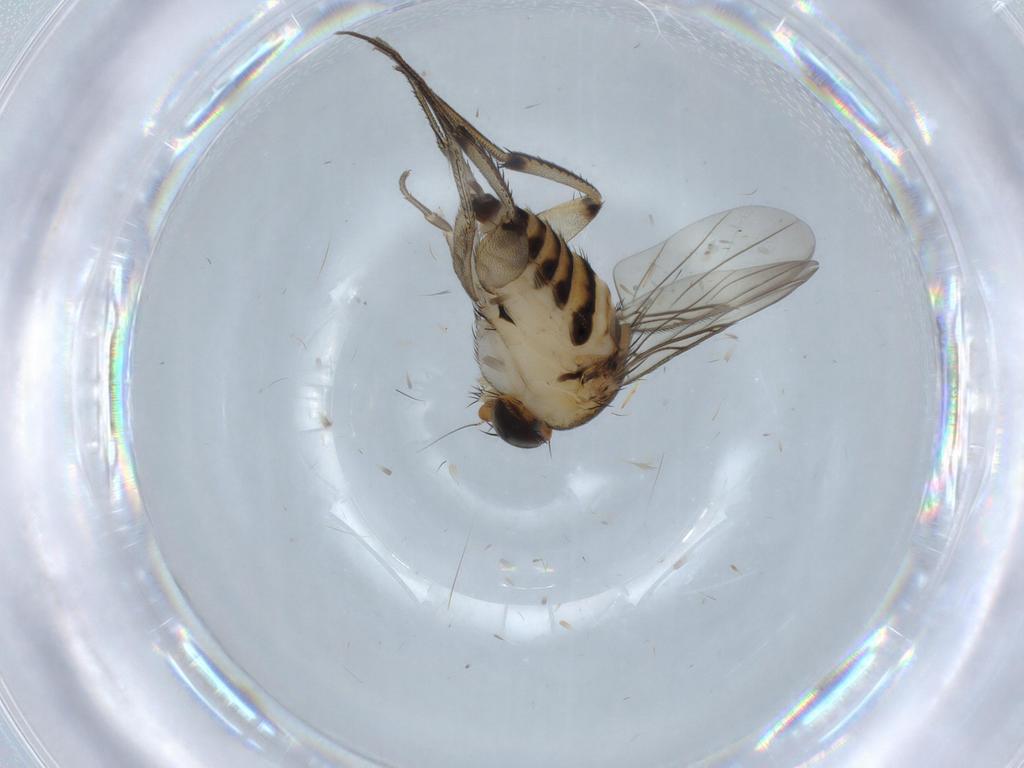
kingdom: Animalia
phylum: Arthropoda
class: Insecta
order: Diptera
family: Phoridae
